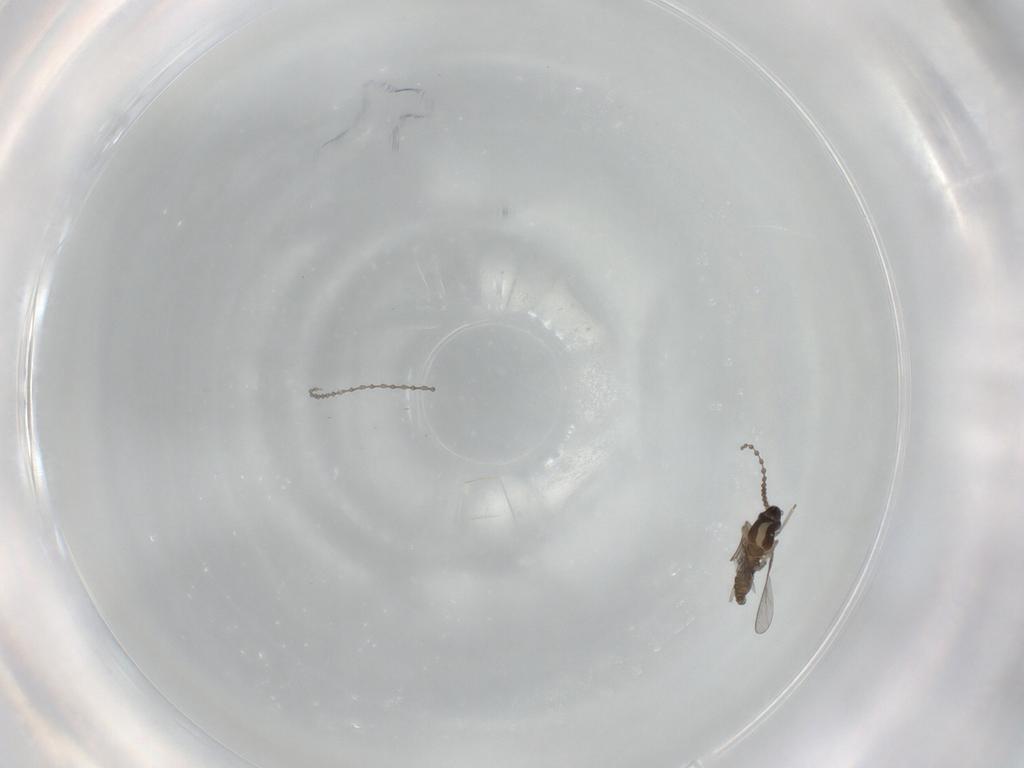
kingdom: Animalia
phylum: Arthropoda
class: Insecta
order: Diptera
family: Cecidomyiidae
